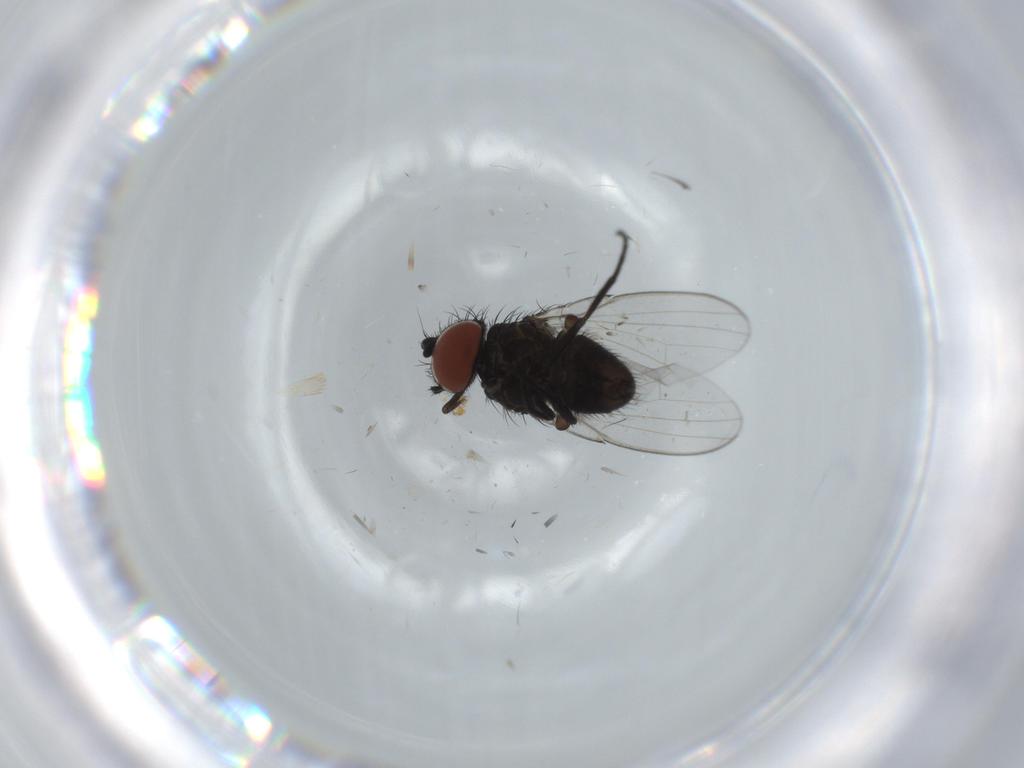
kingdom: Animalia
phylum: Arthropoda
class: Insecta
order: Diptera
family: Milichiidae
